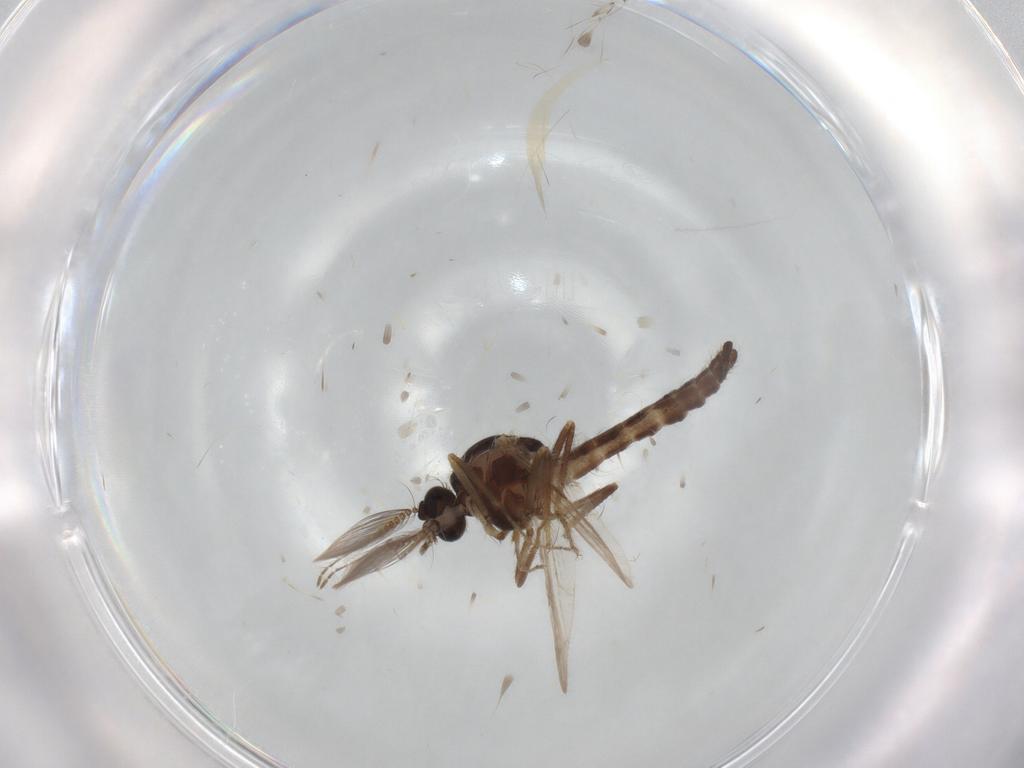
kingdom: Animalia
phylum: Arthropoda
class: Insecta
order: Diptera
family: Ceratopogonidae
